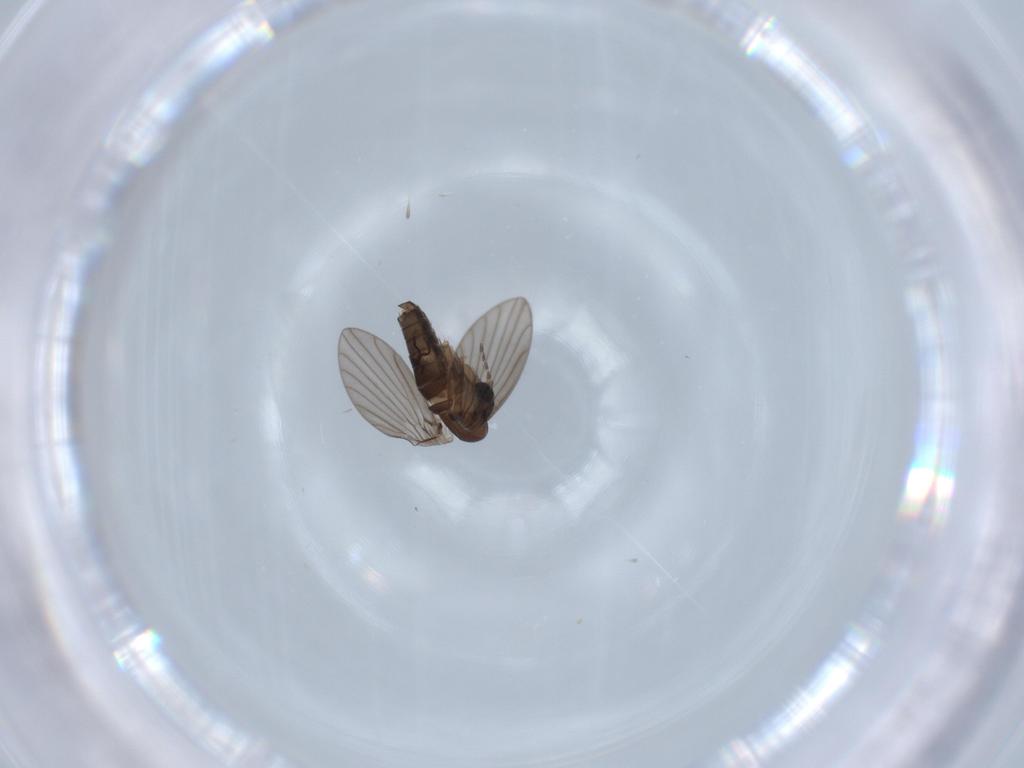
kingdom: Animalia
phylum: Arthropoda
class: Insecta
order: Diptera
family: Psychodidae
